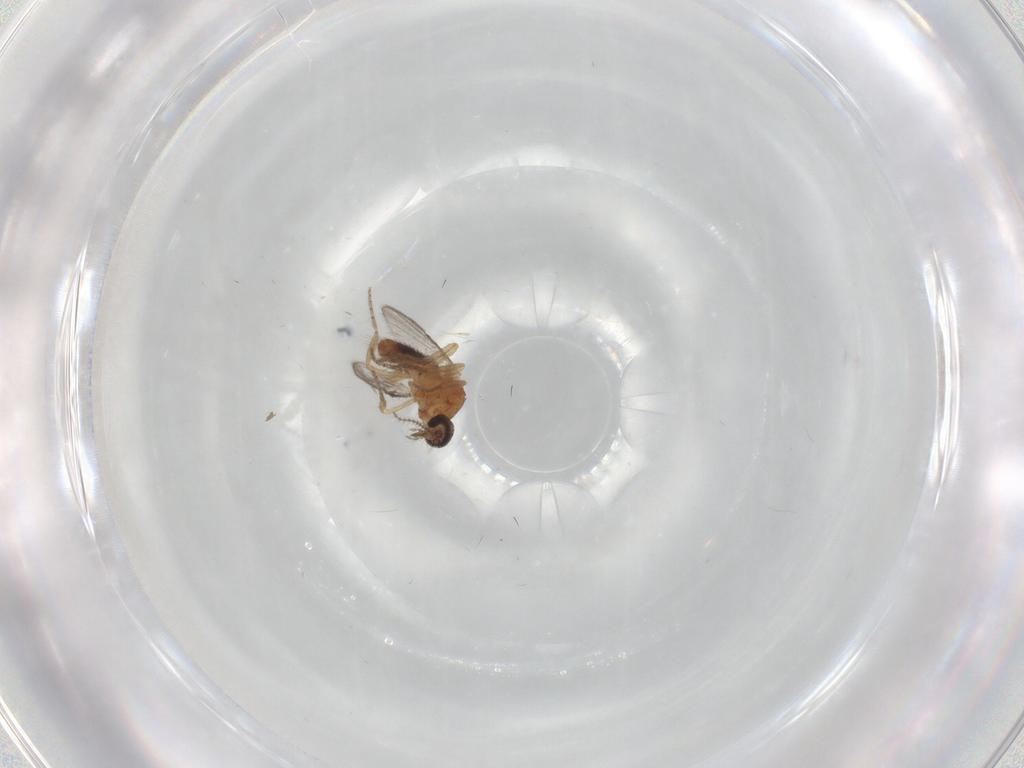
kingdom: Animalia
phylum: Arthropoda
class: Insecta
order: Diptera
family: Ceratopogonidae
